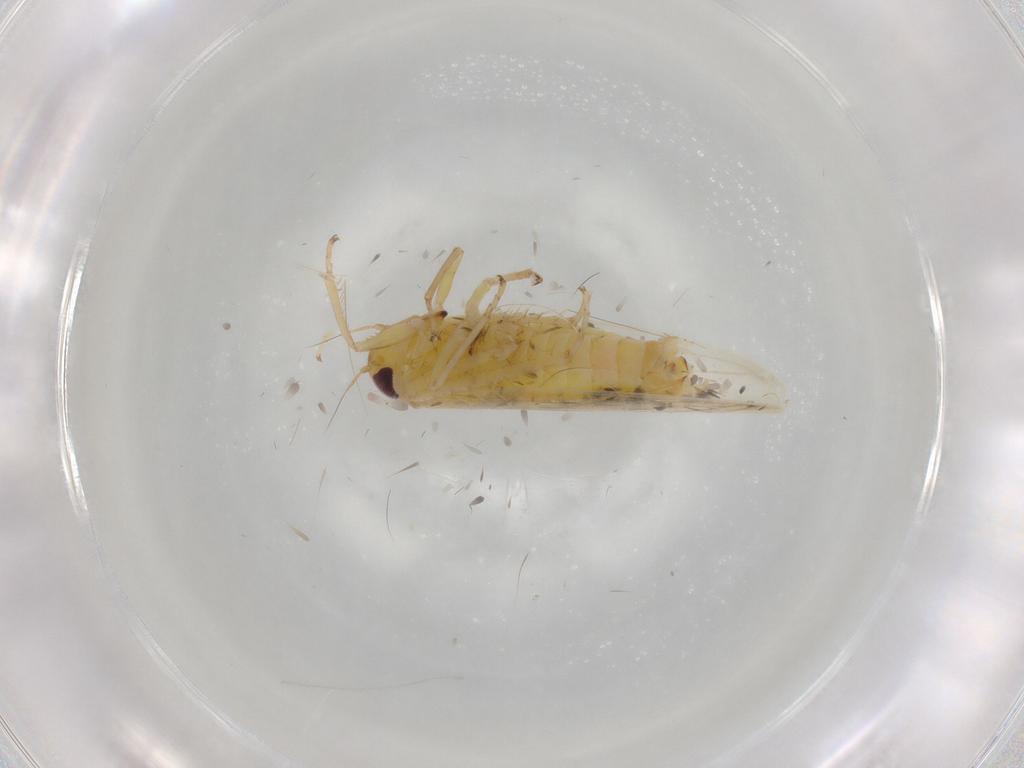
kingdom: Animalia
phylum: Arthropoda
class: Insecta
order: Hemiptera
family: Cicadellidae
